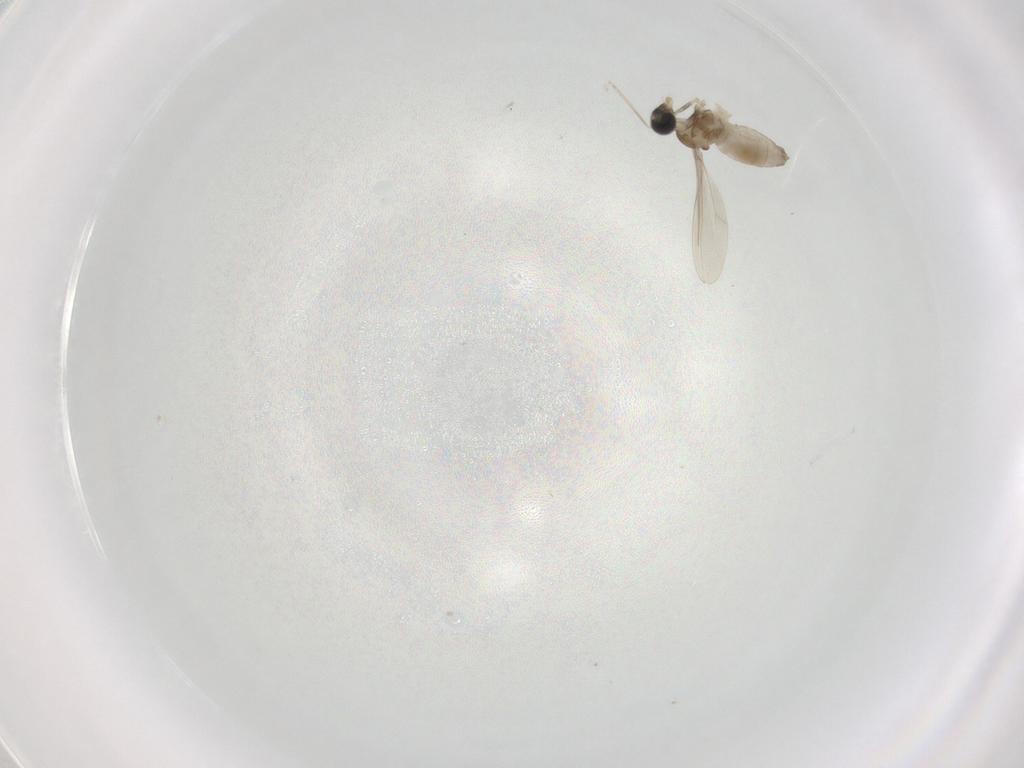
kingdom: Animalia
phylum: Arthropoda
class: Insecta
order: Diptera
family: Cecidomyiidae
